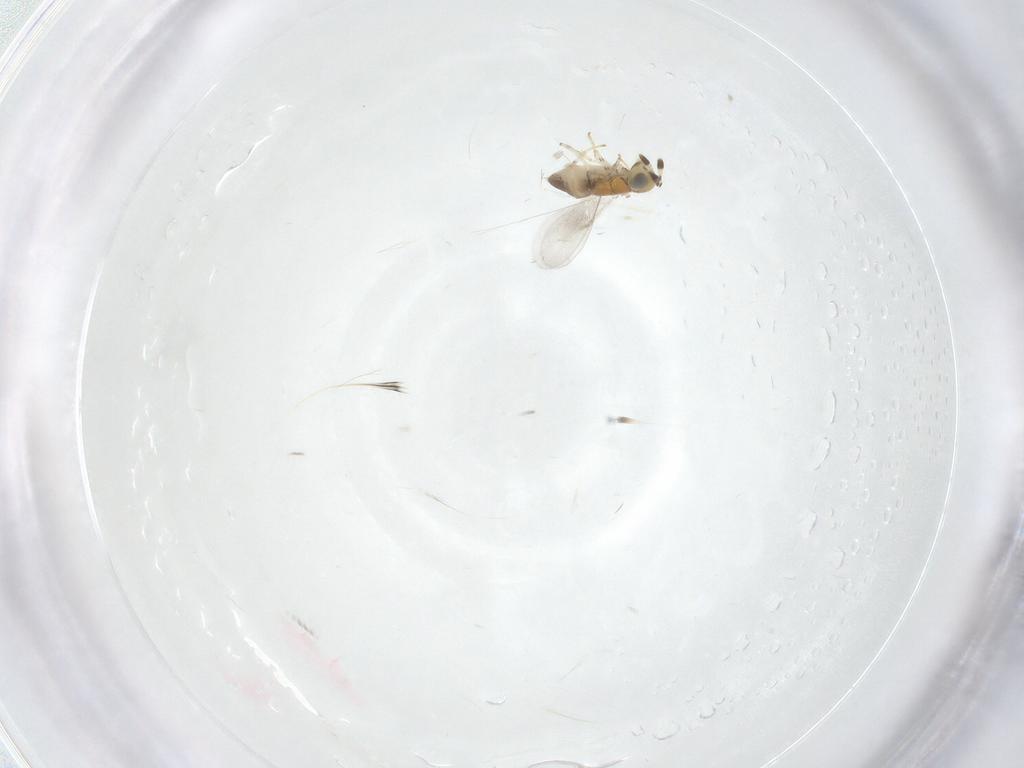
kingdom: Animalia
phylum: Arthropoda
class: Insecta
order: Hymenoptera
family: Encyrtidae
